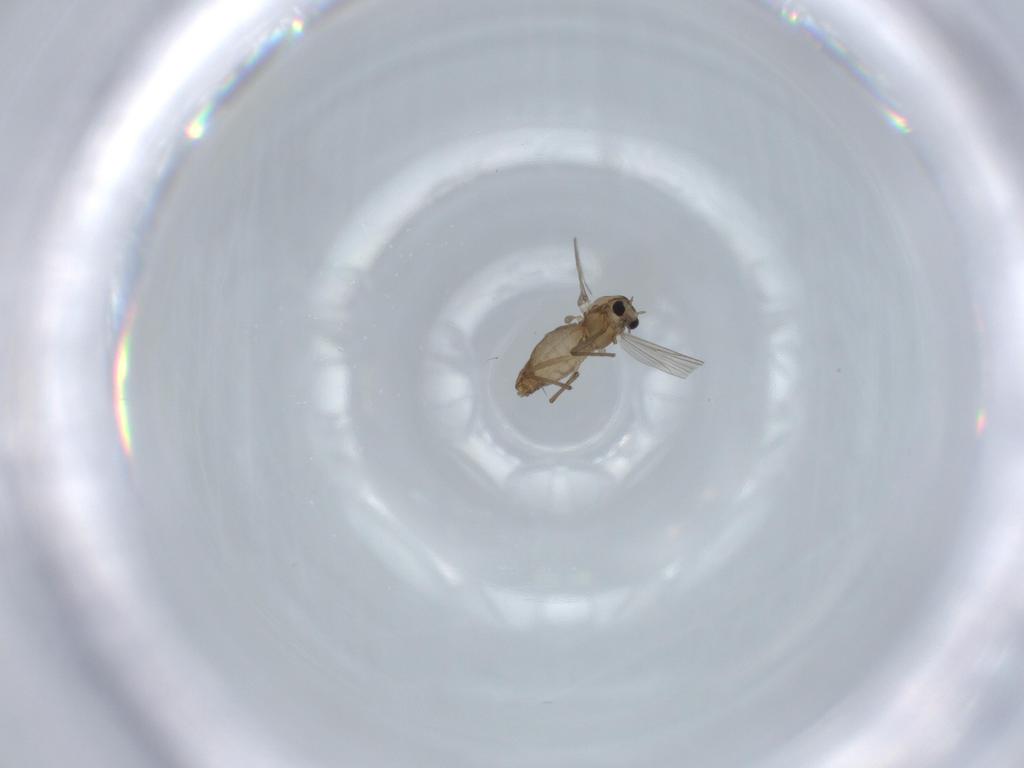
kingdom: Animalia
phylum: Arthropoda
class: Insecta
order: Diptera
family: Chironomidae
